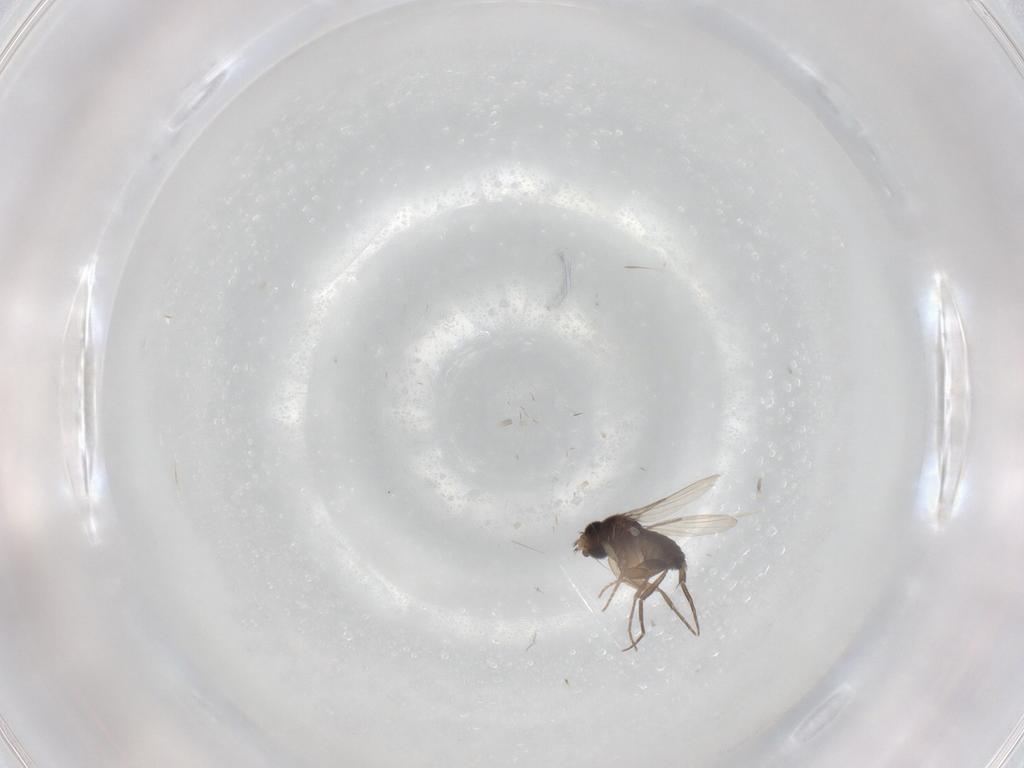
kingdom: Animalia
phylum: Arthropoda
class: Insecta
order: Diptera
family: Phoridae
